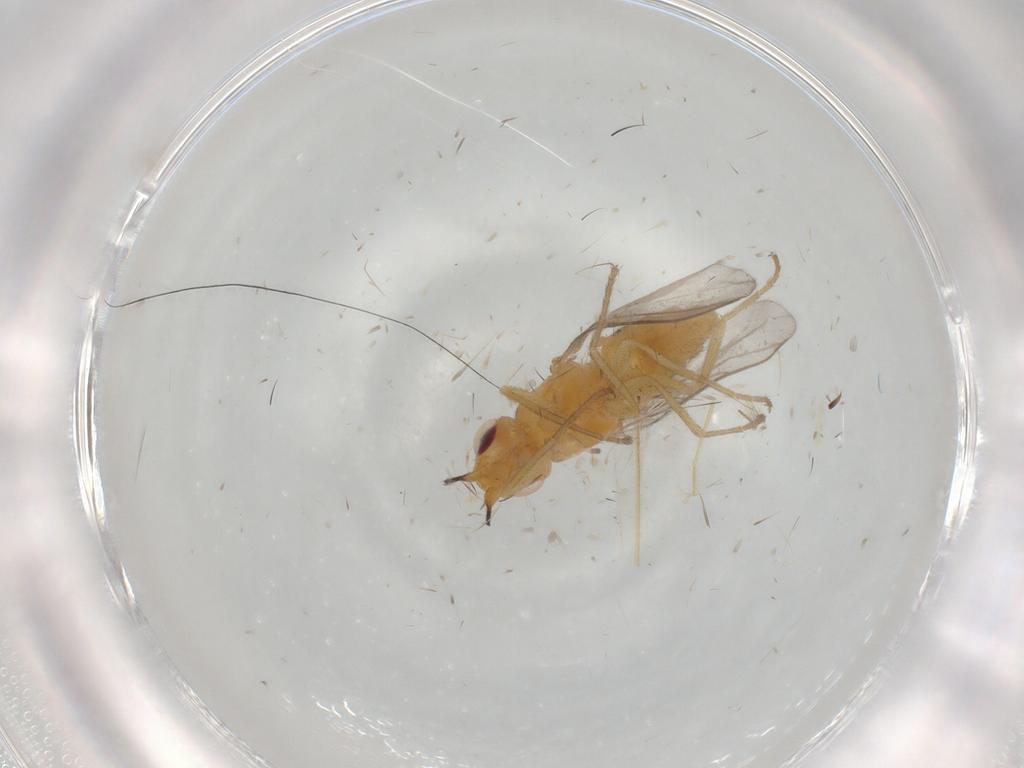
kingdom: Animalia
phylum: Arthropoda
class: Insecta
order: Diptera
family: Chloropidae
